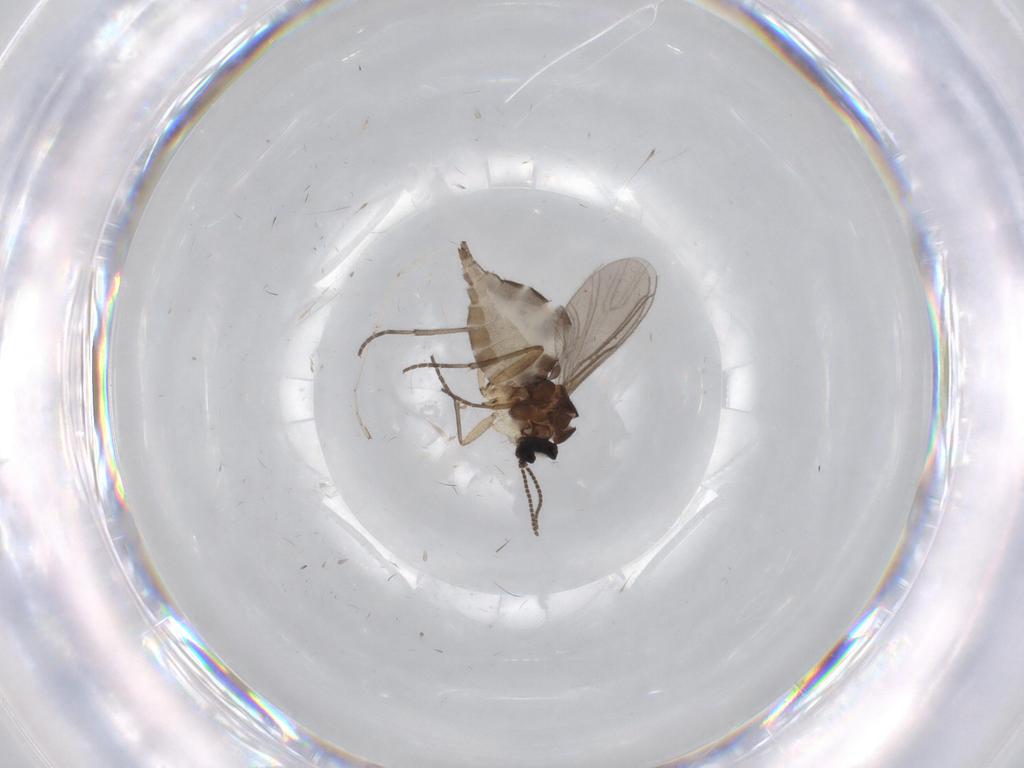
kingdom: Animalia
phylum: Arthropoda
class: Insecta
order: Diptera
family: Sciaridae
